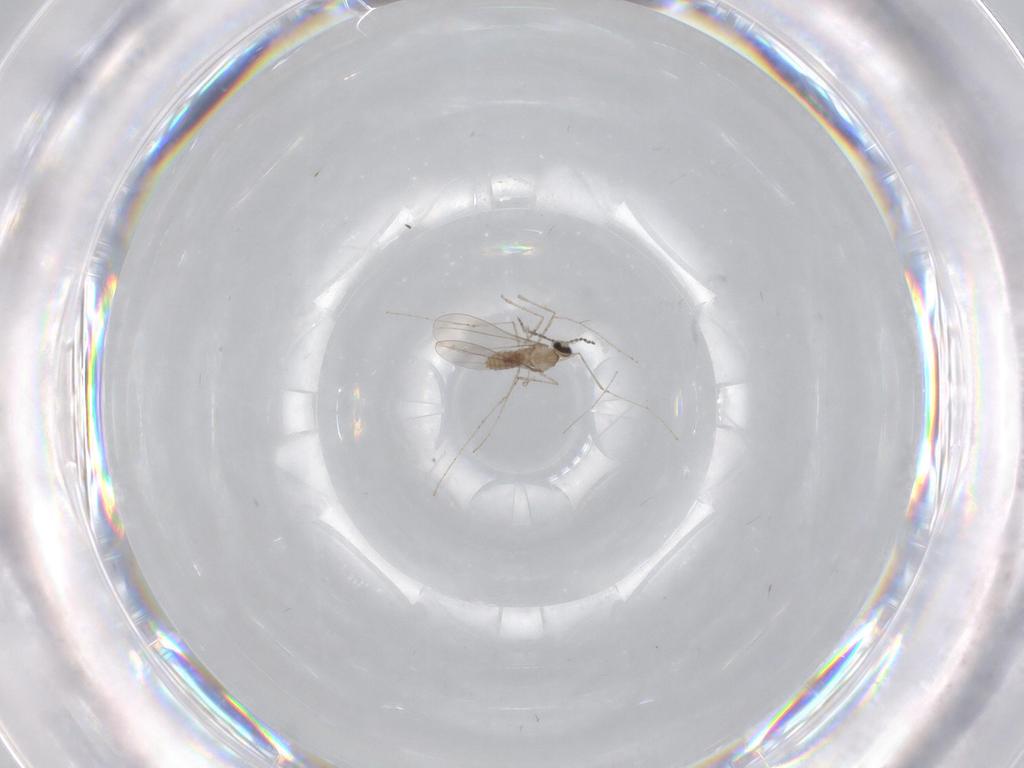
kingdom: Animalia
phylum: Arthropoda
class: Insecta
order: Diptera
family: Cecidomyiidae
